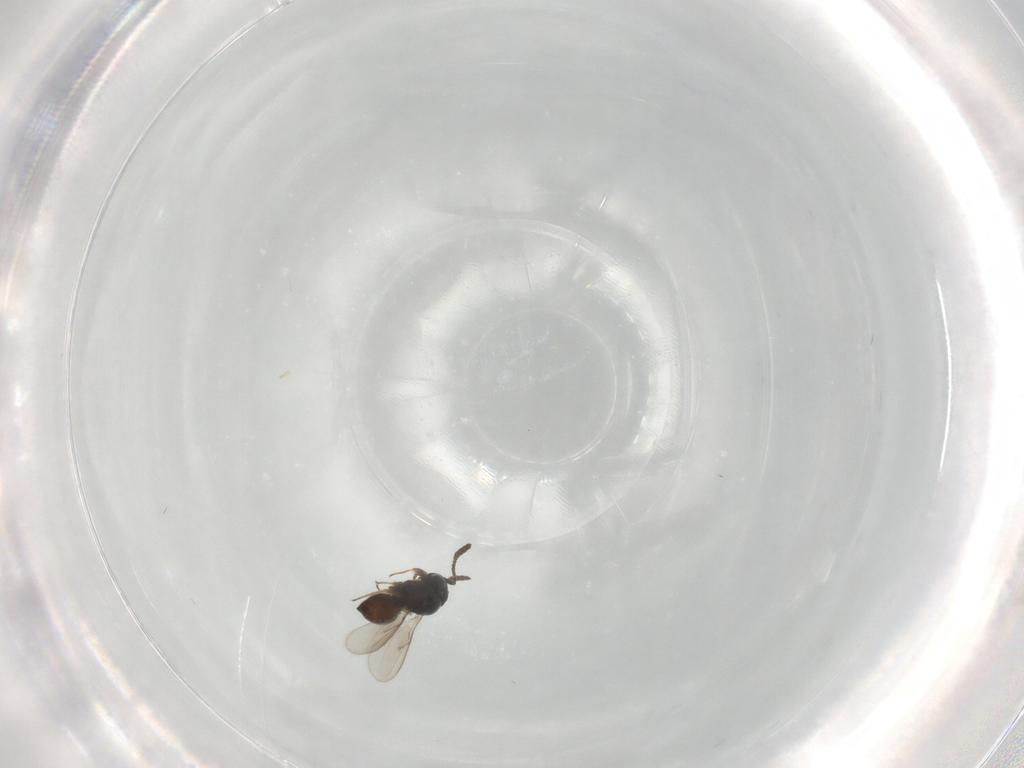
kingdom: Animalia
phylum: Arthropoda
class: Insecta
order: Hymenoptera
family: Scelionidae
